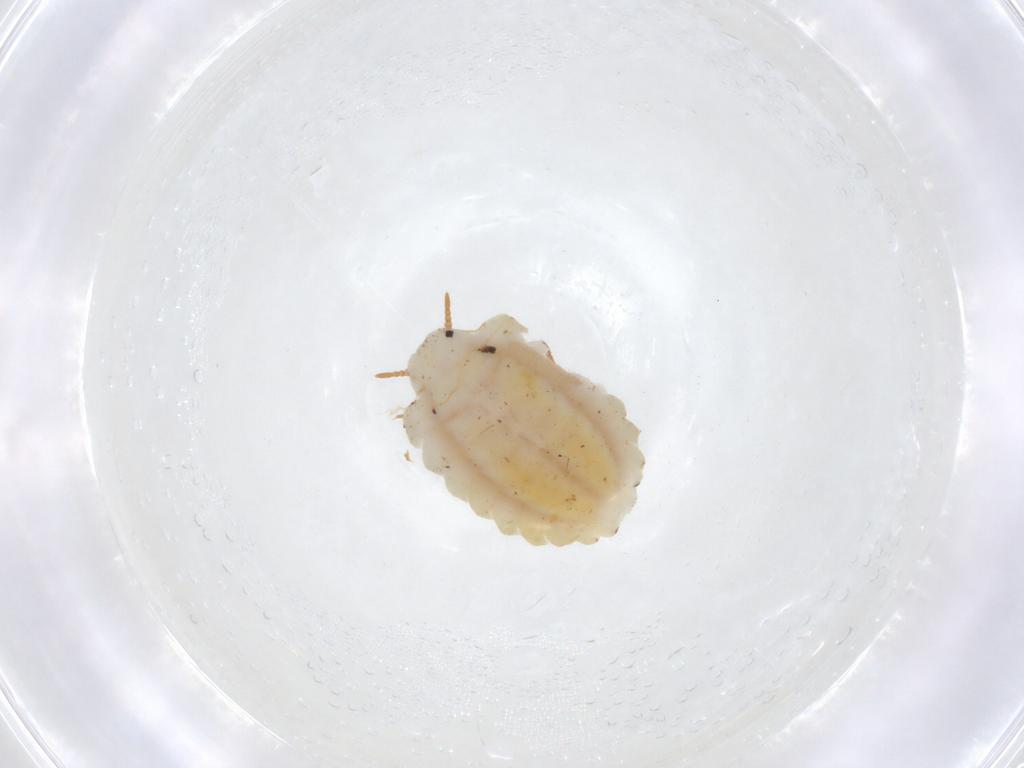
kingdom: Animalia
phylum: Arthropoda
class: Insecta
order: Hemiptera
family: Ortheziidae
